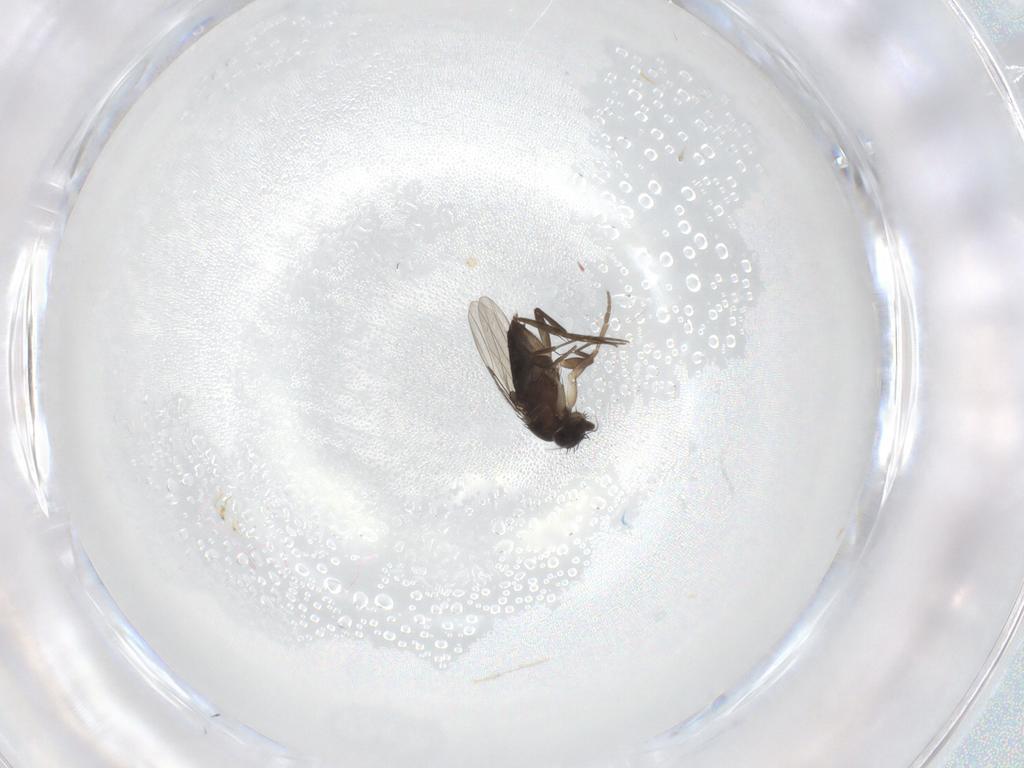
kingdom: Animalia
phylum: Arthropoda
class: Insecta
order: Diptera
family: Phoridae
